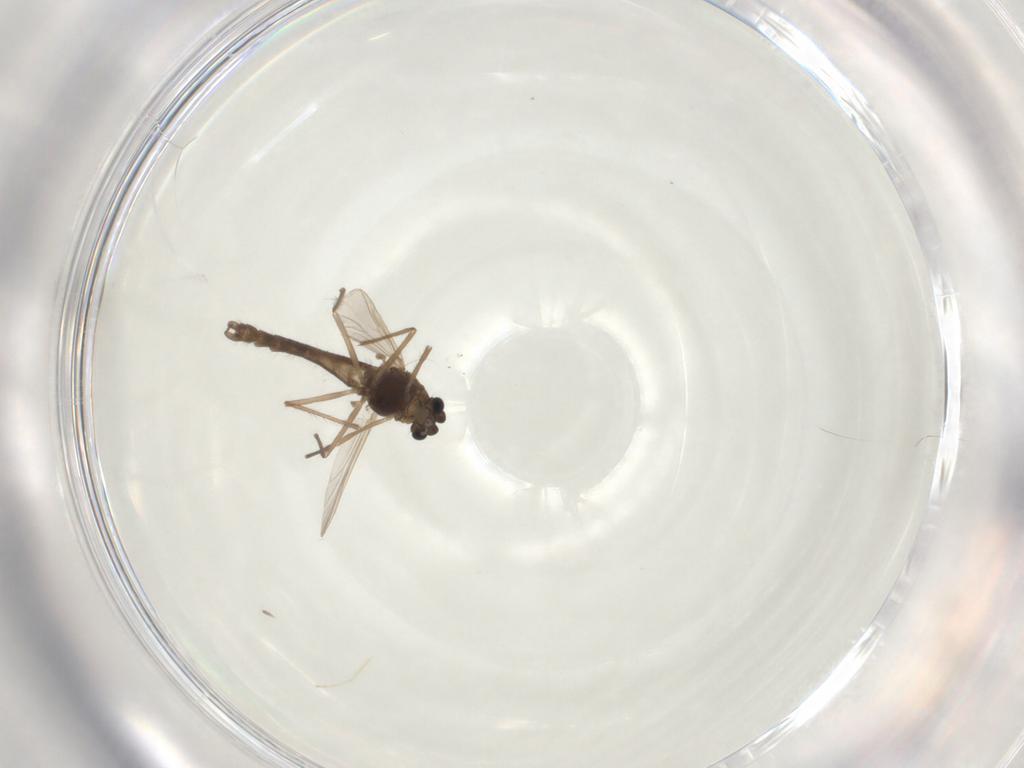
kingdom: Animalia
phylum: Arthropoda
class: Insecta
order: Diptera
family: Chironomidae
